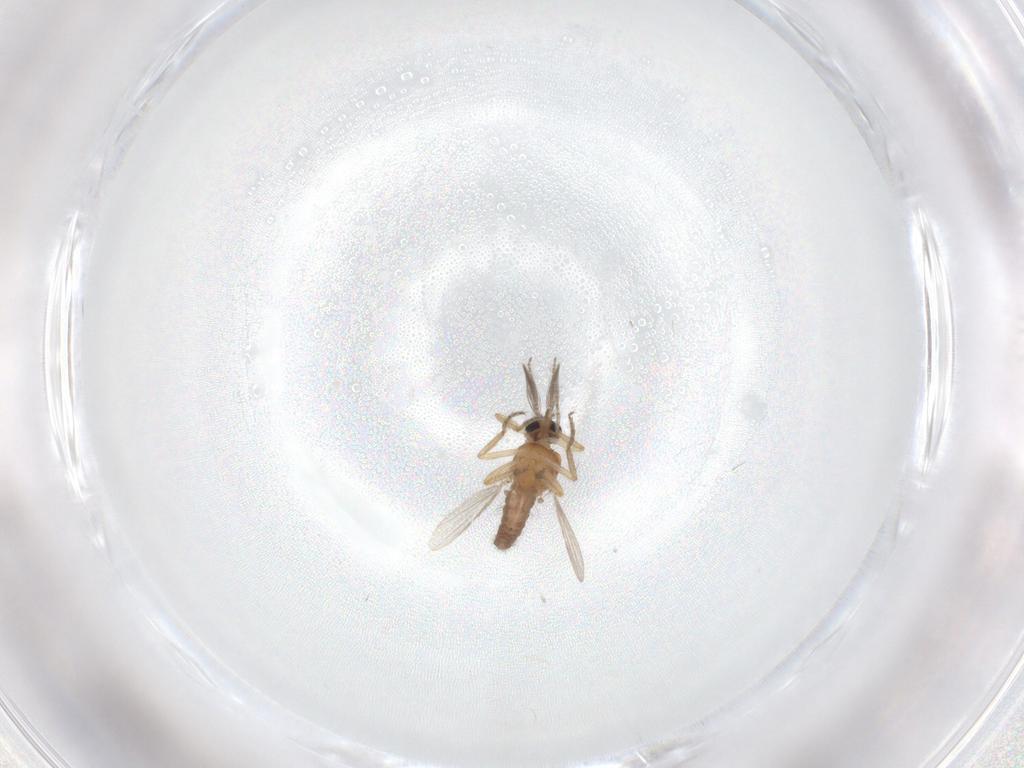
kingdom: Animalia
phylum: Arthropoda
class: Insecta
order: Diptera
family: Ceratopogonidae
